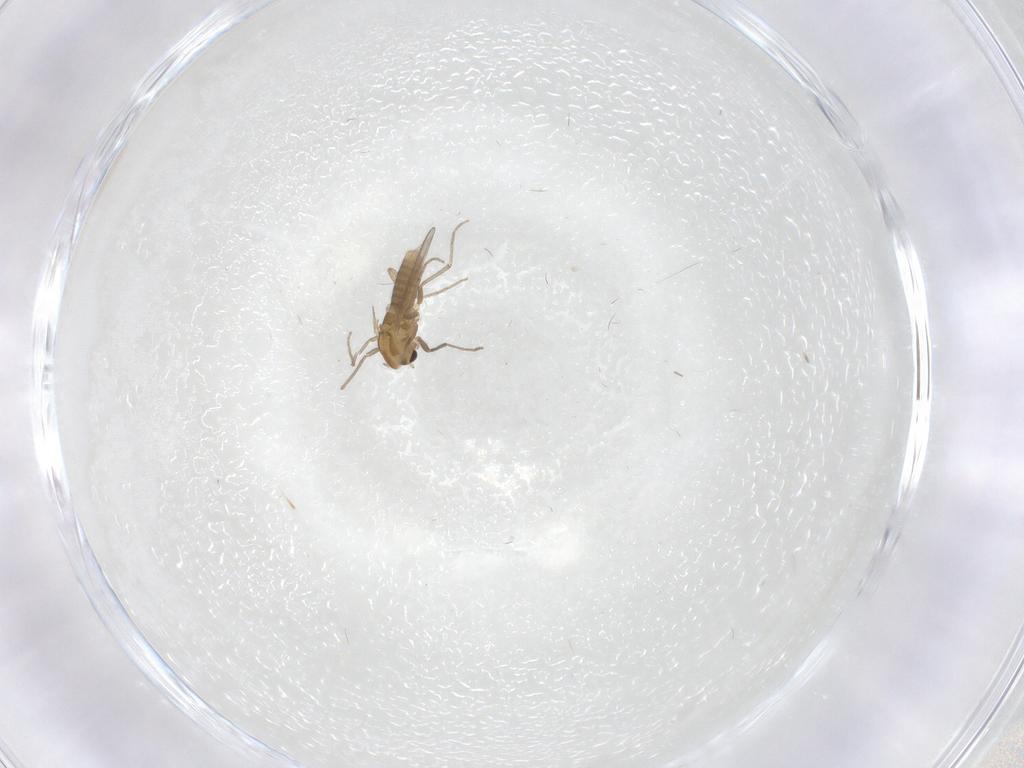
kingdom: Animalia
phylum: Arthropoda
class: Insecta
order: Diptera
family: Chironomidae
